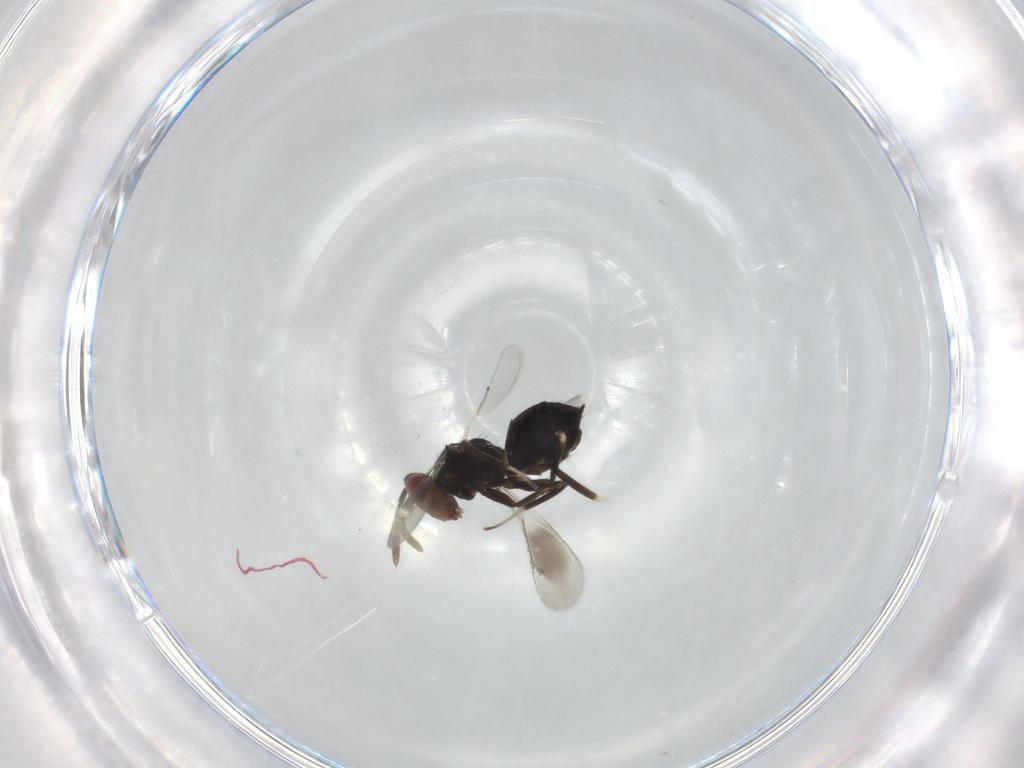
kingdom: Animalia
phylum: Arthropoda
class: Insecta
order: Hymenoptera
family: Eulophidae
